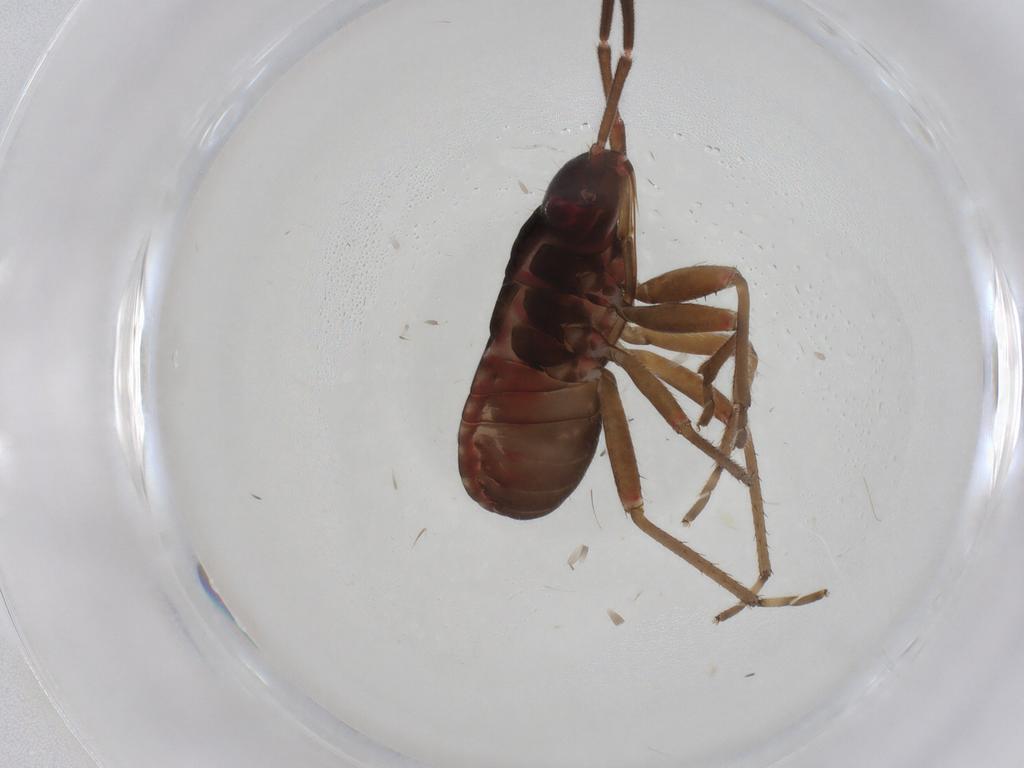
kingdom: Animalia
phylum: Arthropoda
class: Insecta
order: Hemiptera
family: Rhyparochromidae
